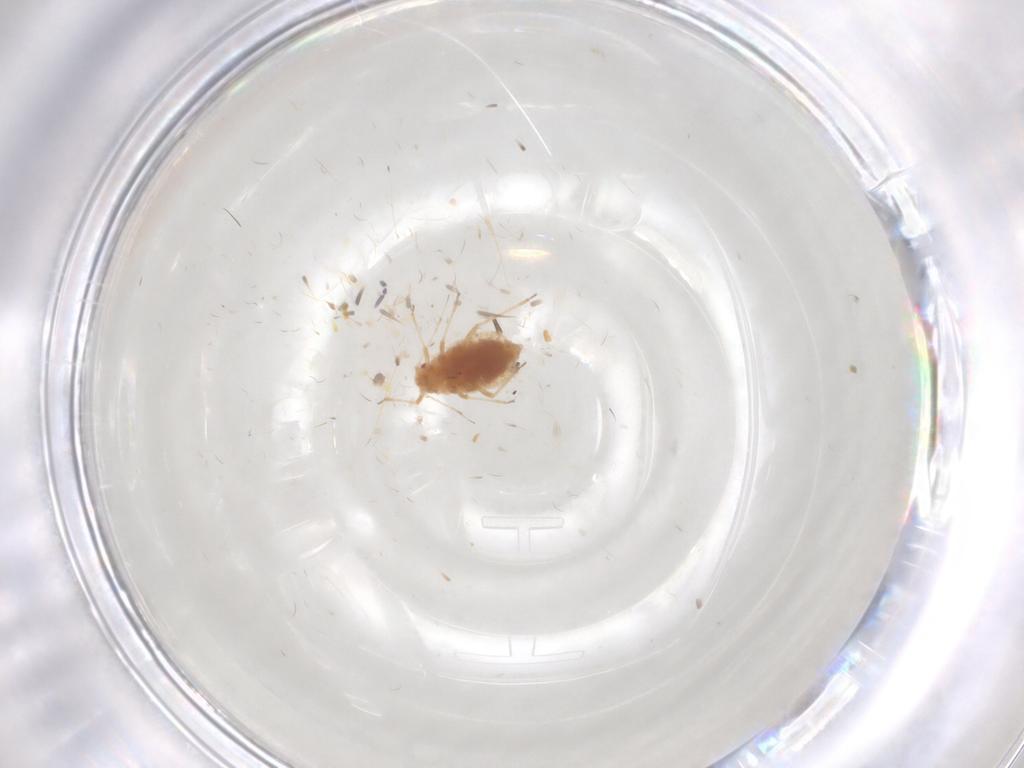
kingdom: Animalia
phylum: Arthropoda
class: Insecta
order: Hemiptera
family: Aphididae
